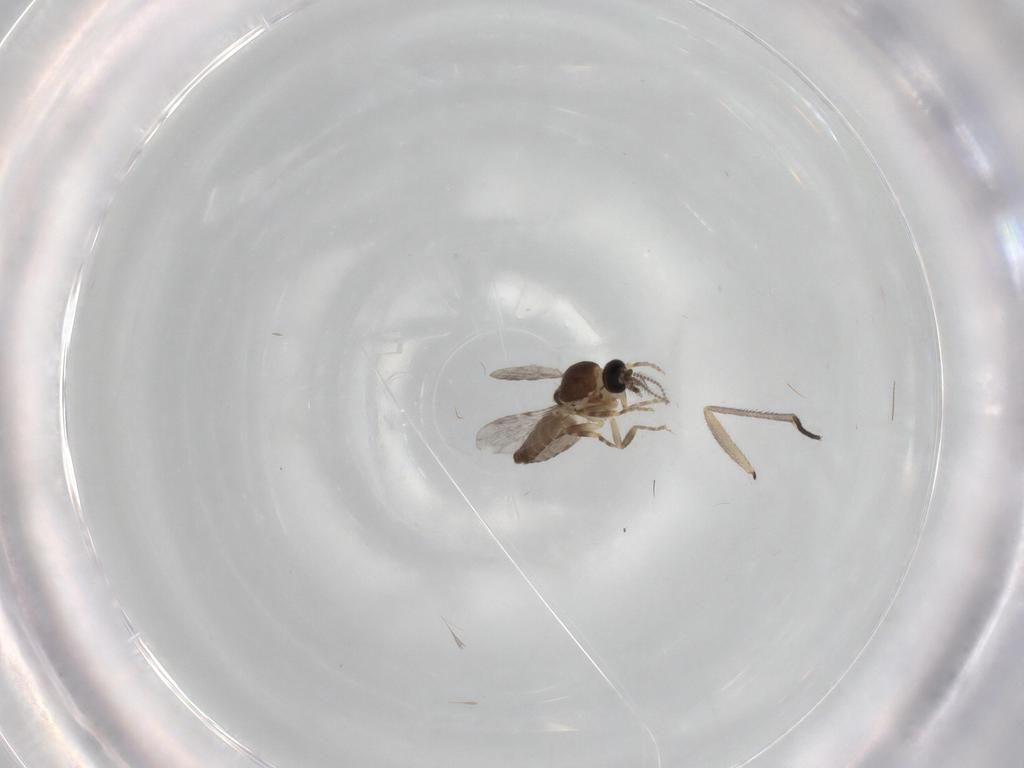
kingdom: Animalia
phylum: Arthropoda
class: Insecta
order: Diptera
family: Ceratopogonidae
